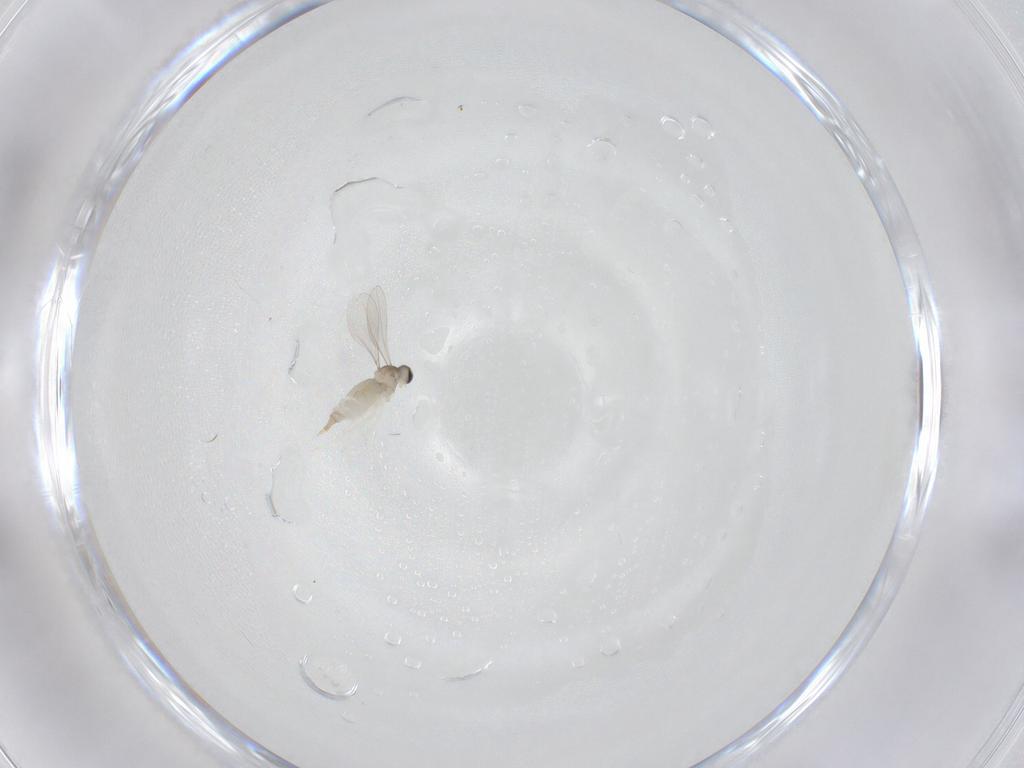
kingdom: Animalia
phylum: Arthropoda
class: Insecta
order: Diptera
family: Cecidomyiidae
